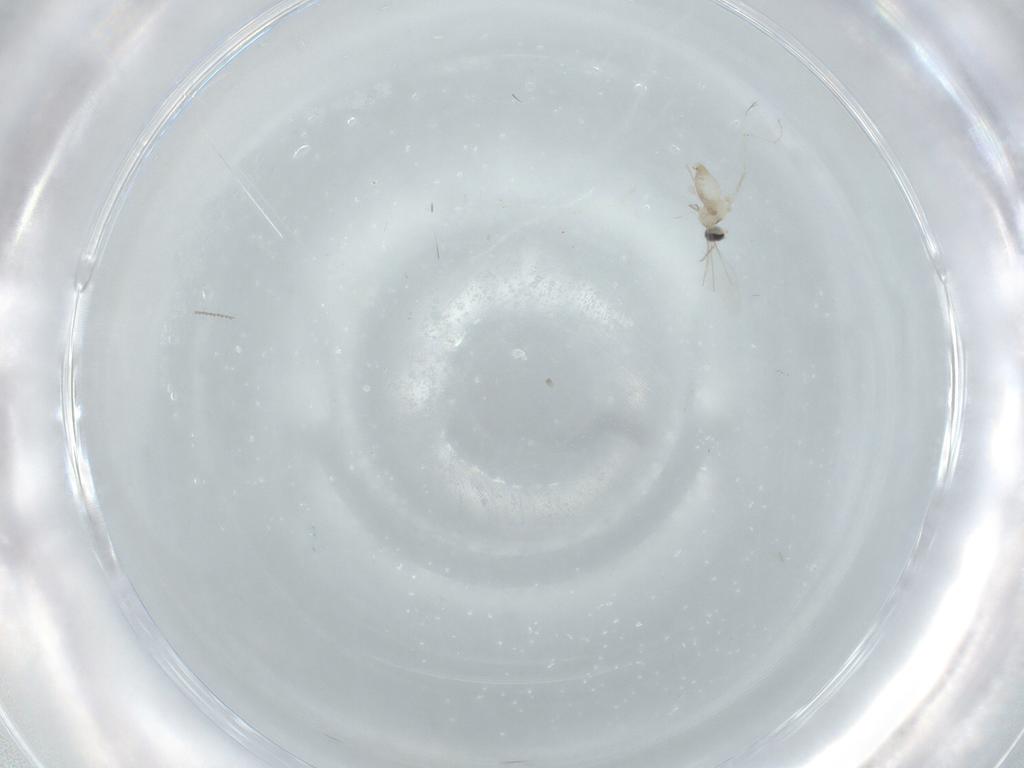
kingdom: Animalia
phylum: Arthropoda
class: Insecta
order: Diptera
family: Cecidomyiidae
